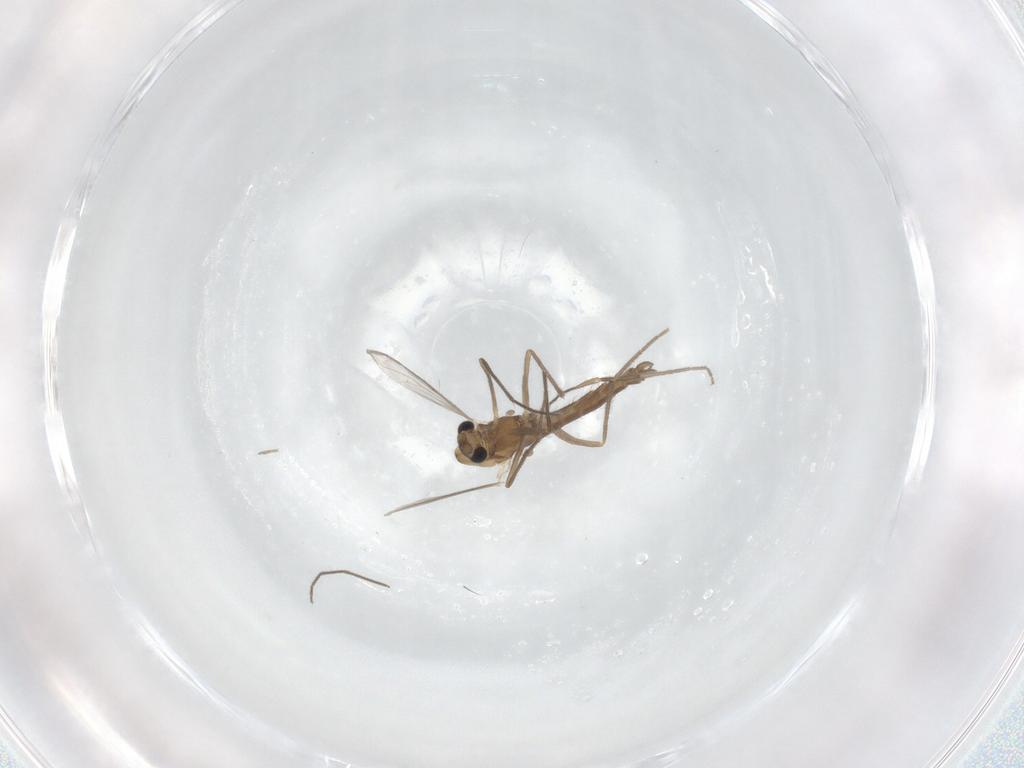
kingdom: Animalia
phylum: Arthropoda
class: Insecta
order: Diptera
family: Chironomidae
